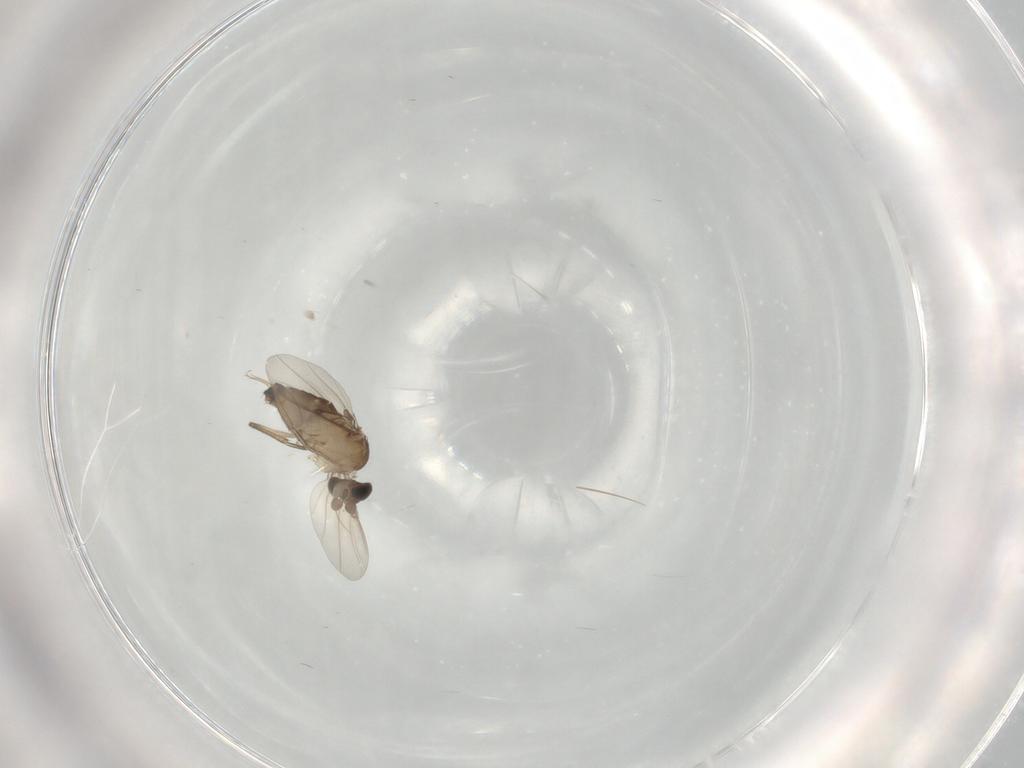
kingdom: Animalia
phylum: Arthropoda
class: Insecta
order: Diptera
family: Phoridae
